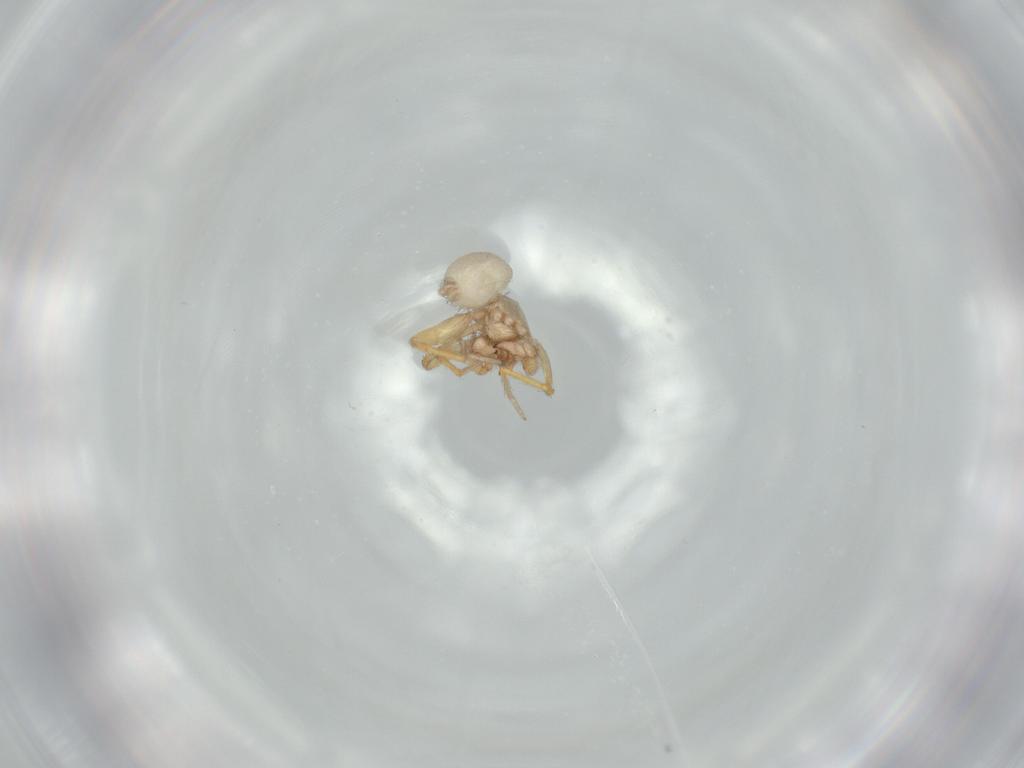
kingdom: Animalia
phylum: Arthropoda
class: Arachnida
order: Araneae
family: Oonopidae
